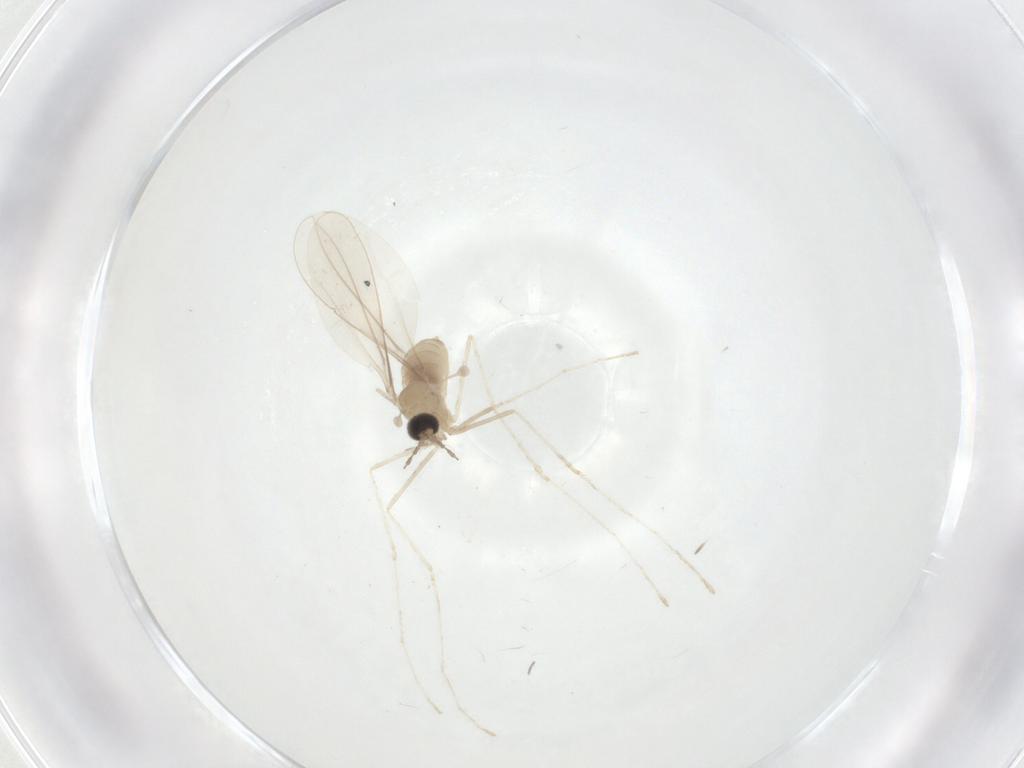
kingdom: Animalia
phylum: Arthropoda
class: Insecta
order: Diptera
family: Cecidomyiidae
